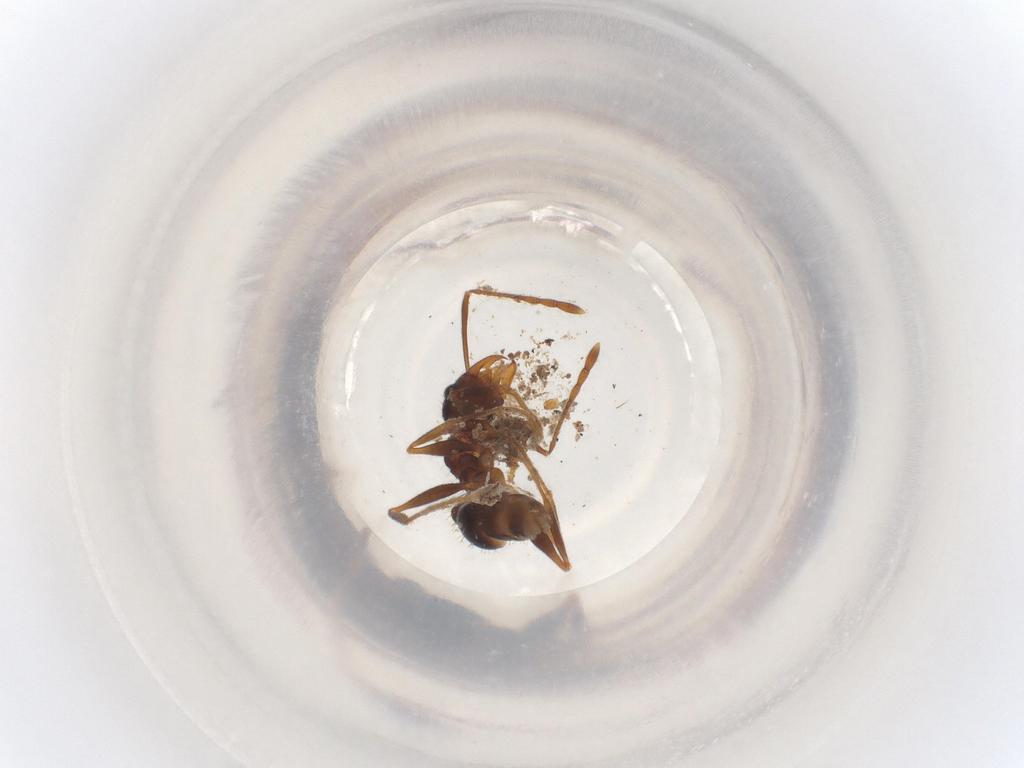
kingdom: Animalia
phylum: Arthropoda
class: Insecta
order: Hymenoptera
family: Formicidae
